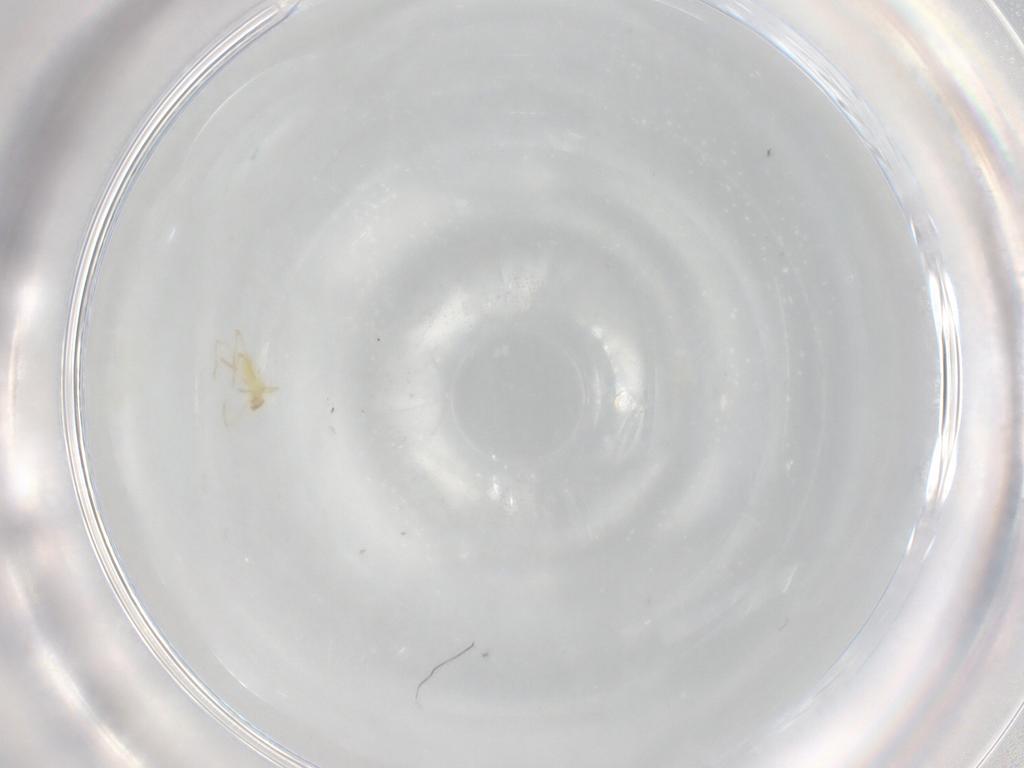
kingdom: Animalia
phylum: Arthropoda
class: Arachnida
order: Trombidiformes
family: Erythraeidae
